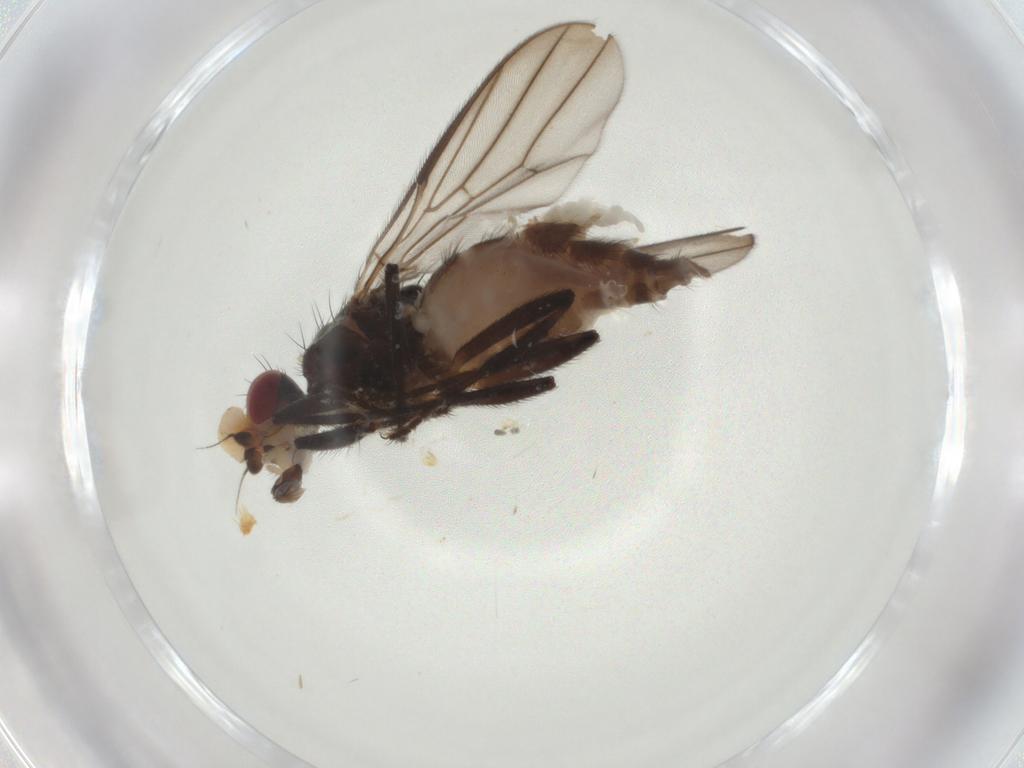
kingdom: Animalia
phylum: Arthropoda
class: Insecta
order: Diptera
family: Chloropidae
